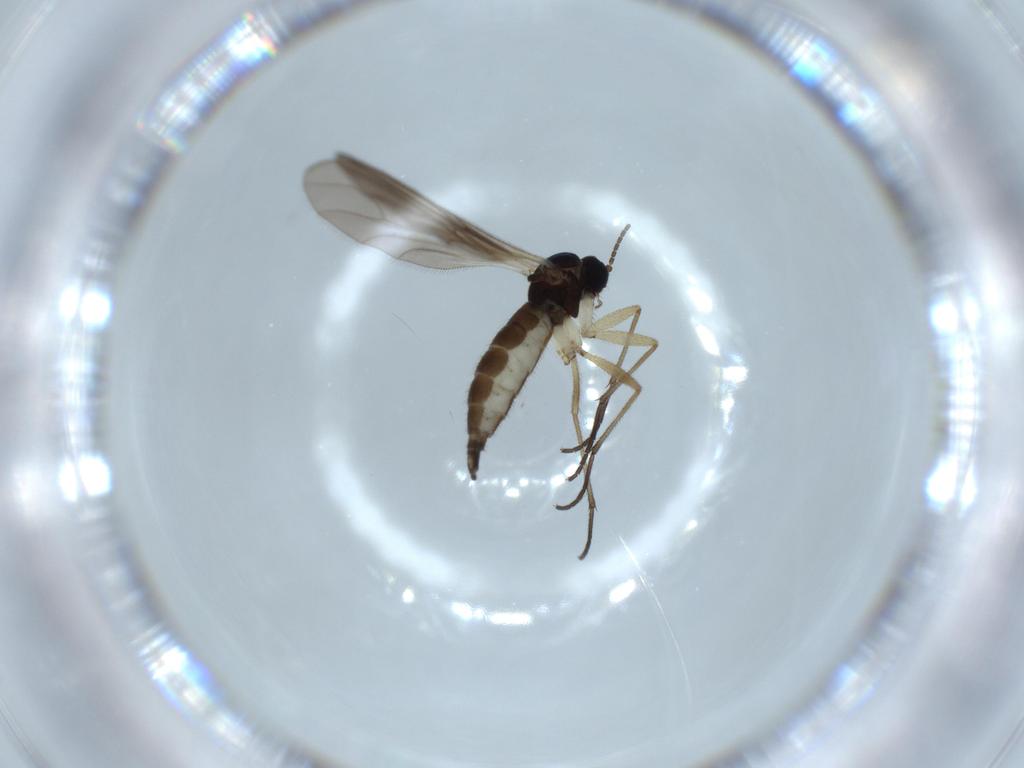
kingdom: Animalia
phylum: Arthropoda
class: Insecta
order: Diptera
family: Sciaridae
